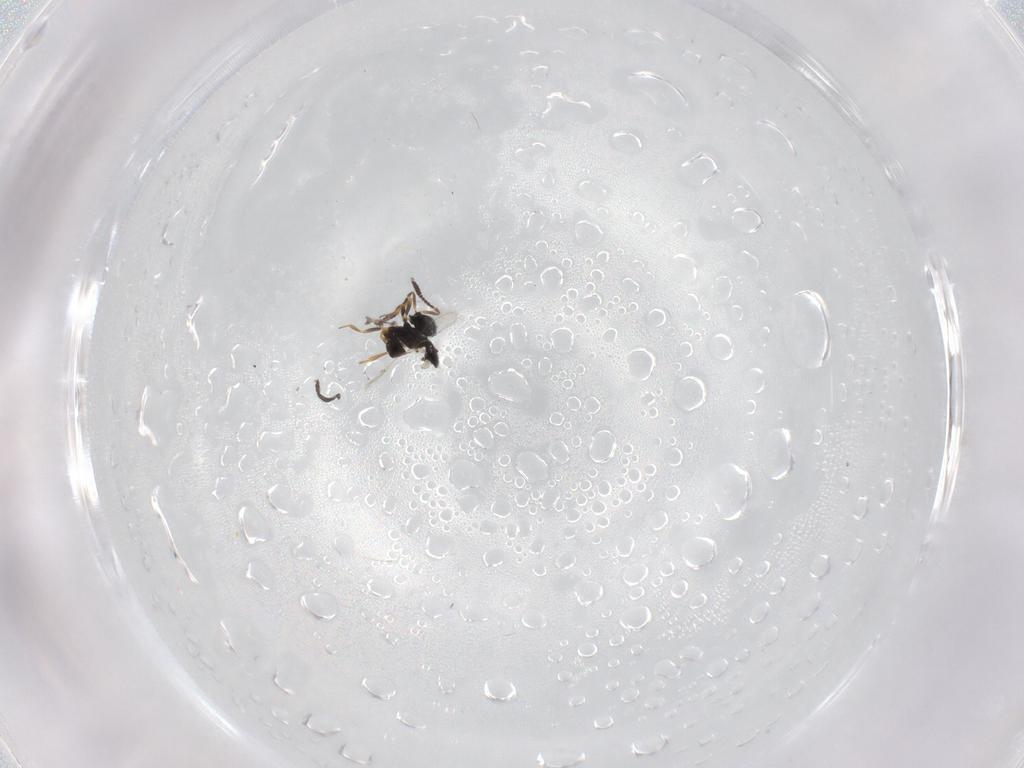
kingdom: Animalia
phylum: Arthropoda
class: Insecta
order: Hymenoptera
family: Scelionidae
